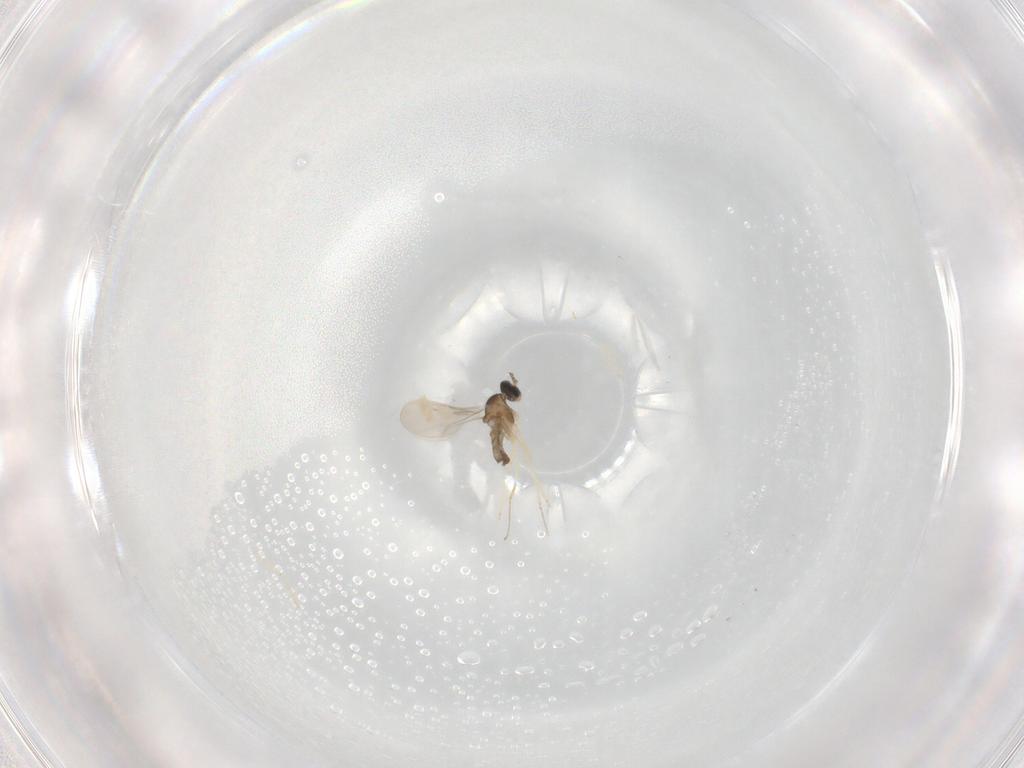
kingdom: Animalia
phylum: Arthropoda
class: Insecta
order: Diptera
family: Cecidomyiidae
